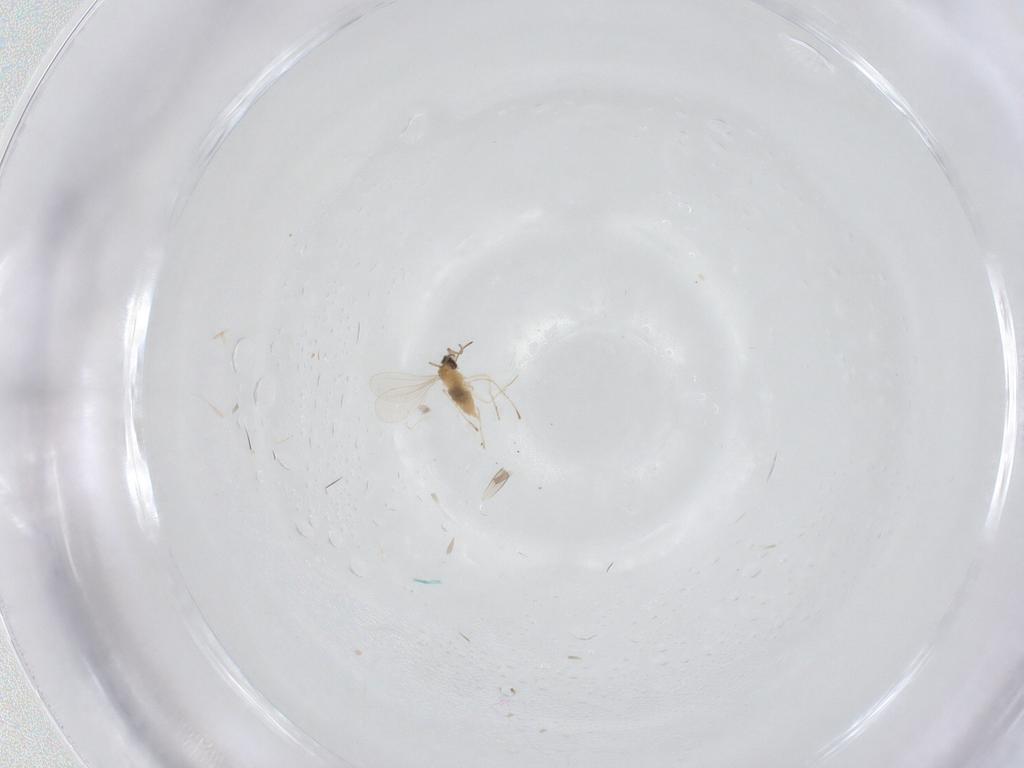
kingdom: Animalia
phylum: Arthropoda
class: Insecta
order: Diptera
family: Cecidomyiidae
